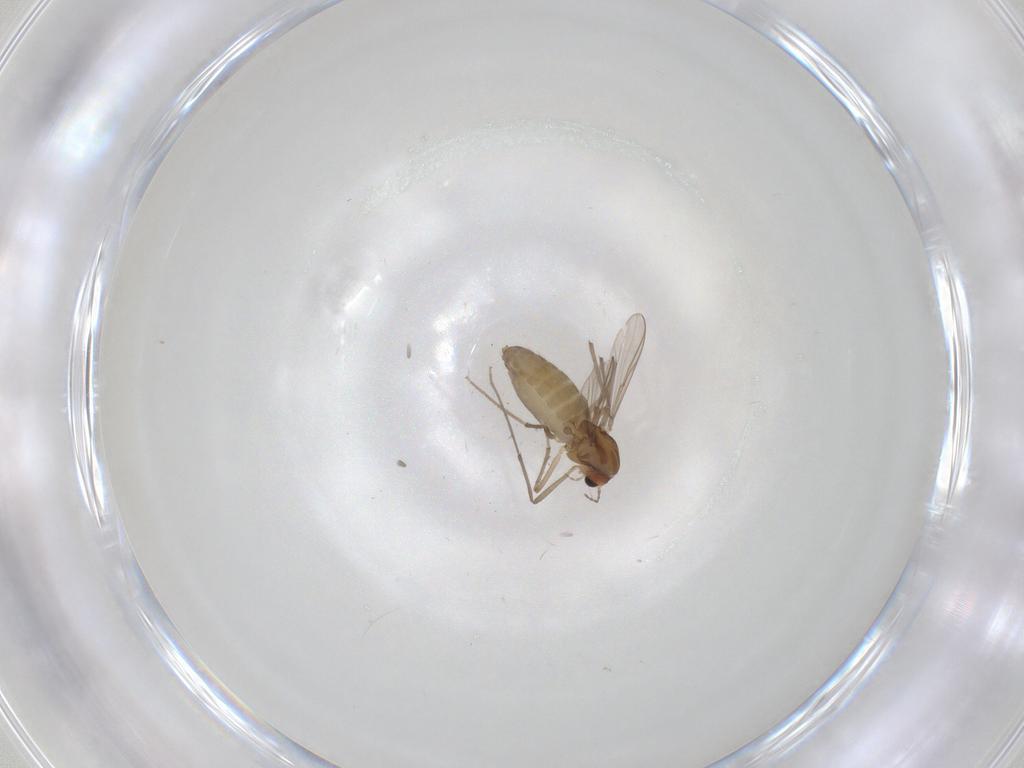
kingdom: Animalia
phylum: Arthropoda
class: Insecta
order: Diptera
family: Chironomidae
